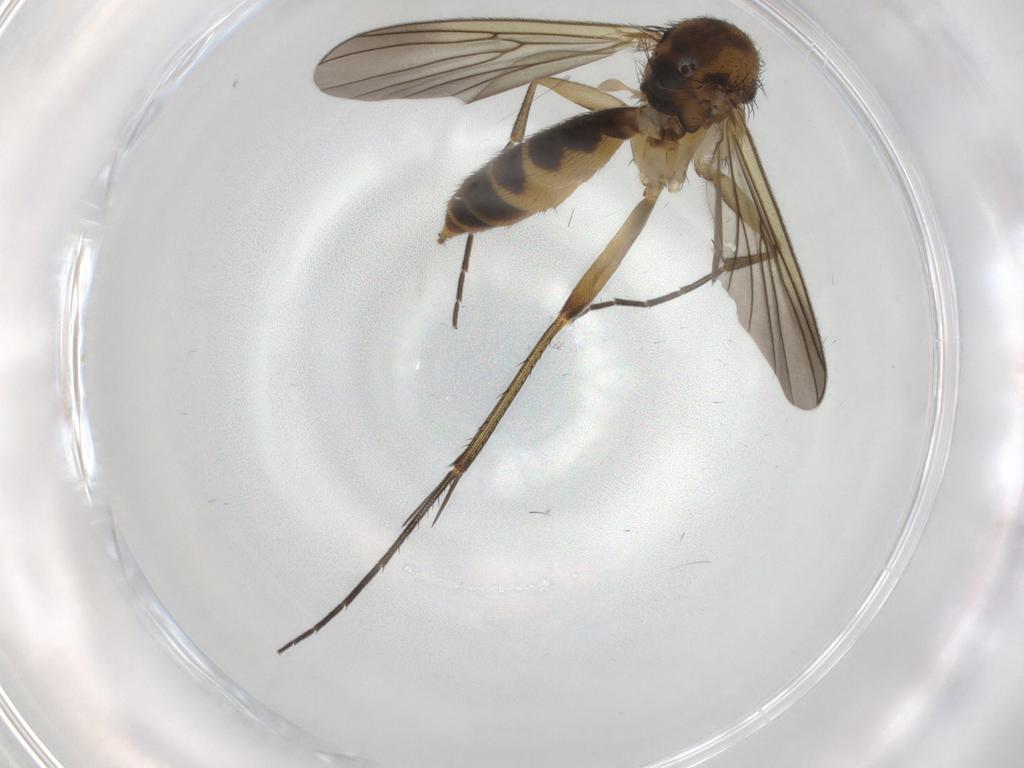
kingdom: Animalia
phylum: Arthropoda
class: Insecta
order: Diptera
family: Mycetophilidae
